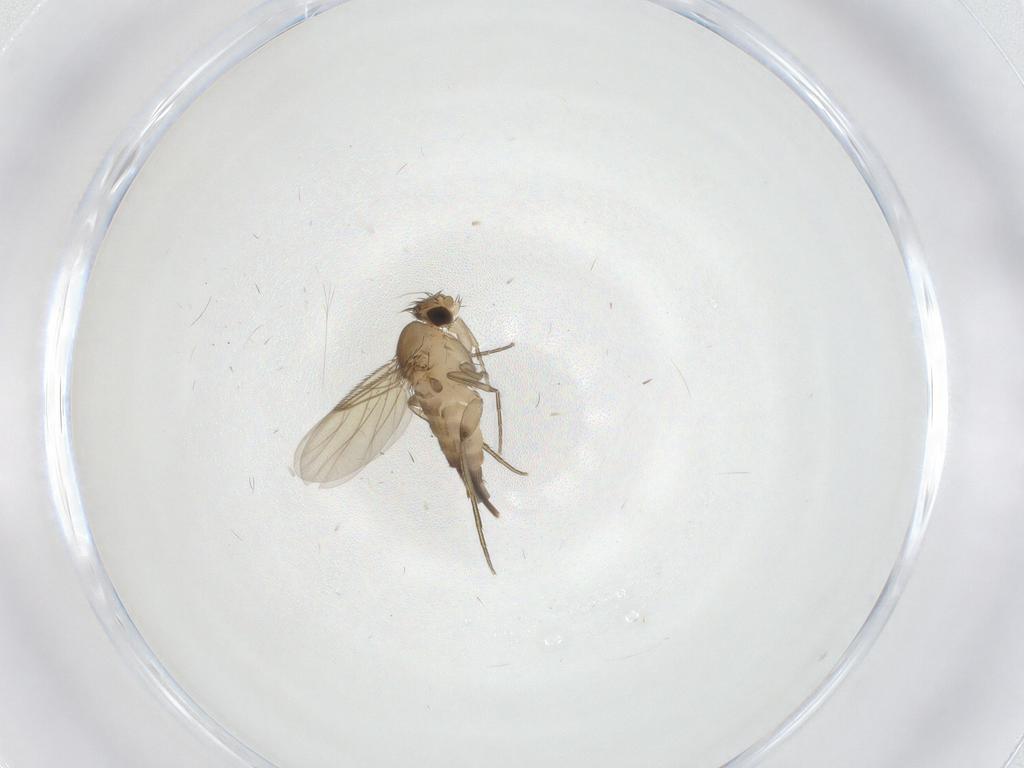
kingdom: Animalia
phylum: Arthropoda
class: Insecta
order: Diptera
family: Phoridae
